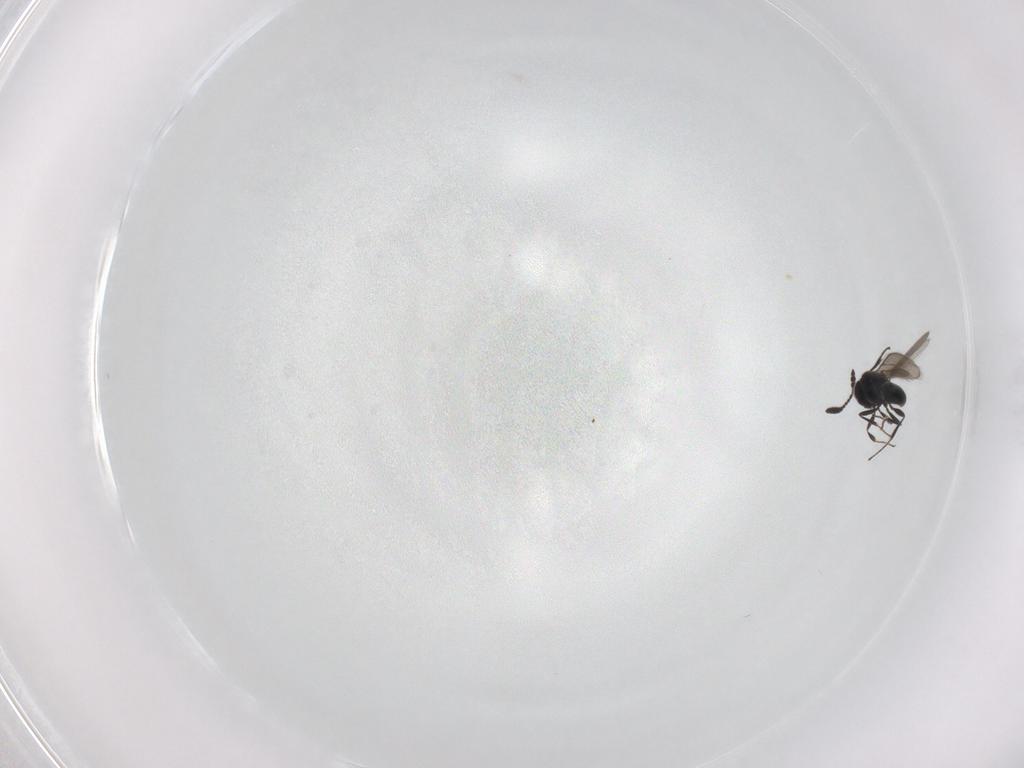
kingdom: Animalia
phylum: Arthropoda
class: Insecta
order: Hymenoptera
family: Scelionidae
